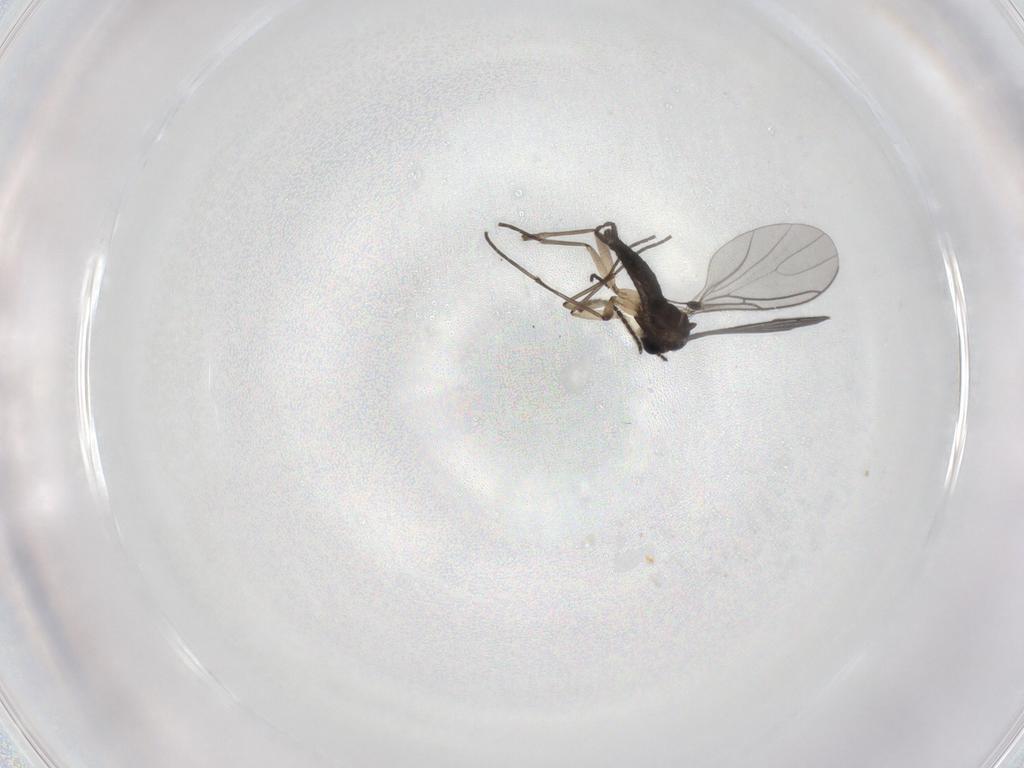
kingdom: Animalia
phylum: Arthropoda
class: Insecta
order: Diptera
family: Sciaridae
